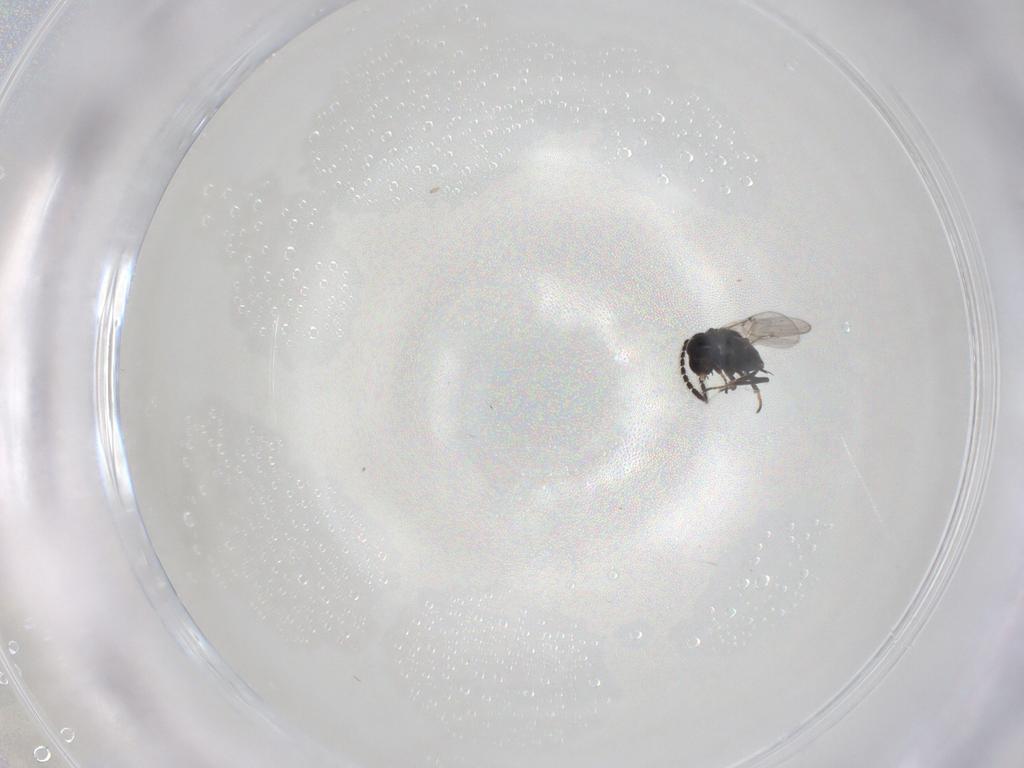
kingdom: Animalia
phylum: Arthropoda
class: Insecta
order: Hymenoptera
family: Encyrtidae
